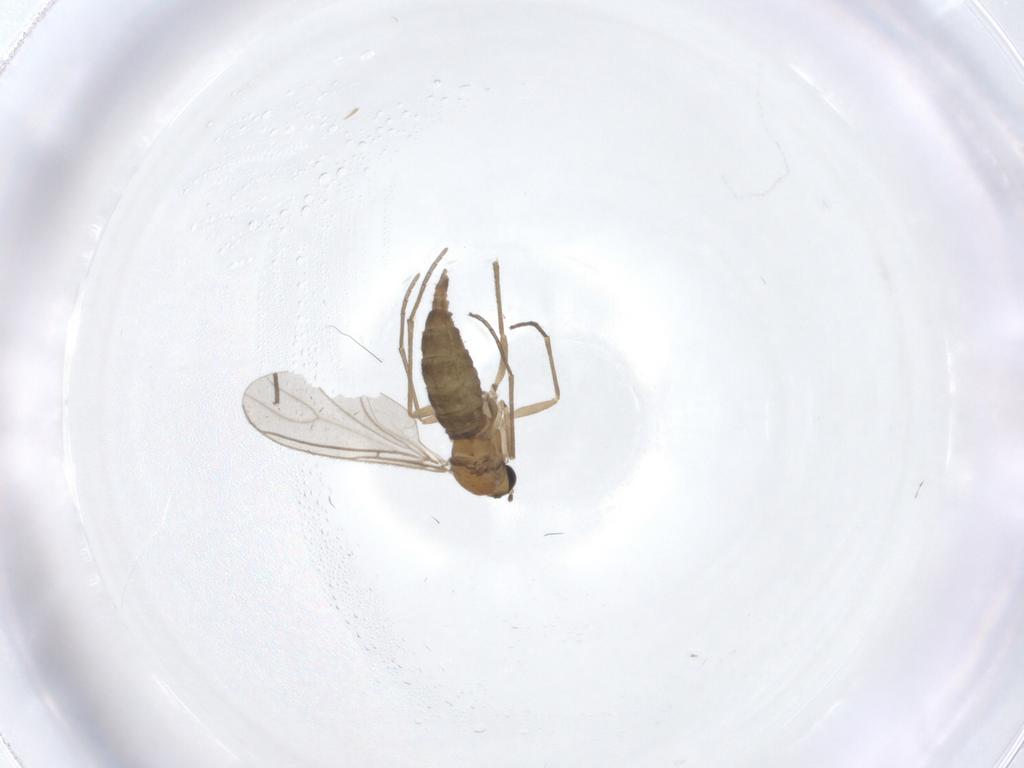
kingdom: Animalia
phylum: Arthropoda
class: Insecta
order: Diptera
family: Sciaridae
